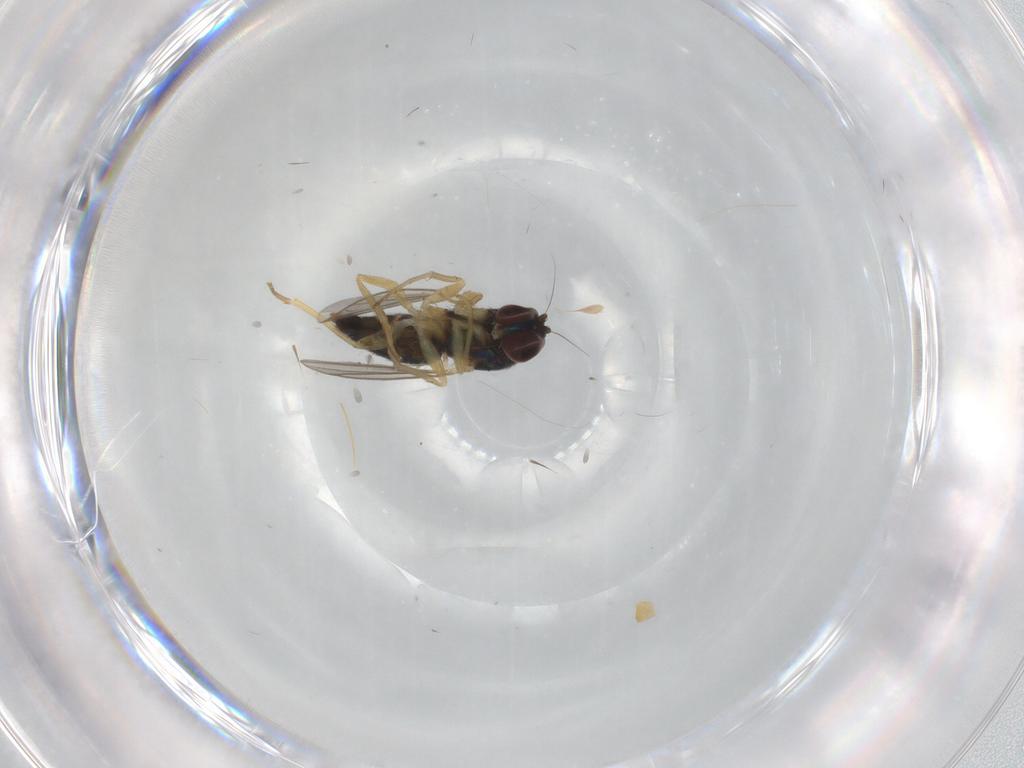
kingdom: Animalia
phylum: Arthropoda
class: Insecta
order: Diptera
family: Dolichopodidae
